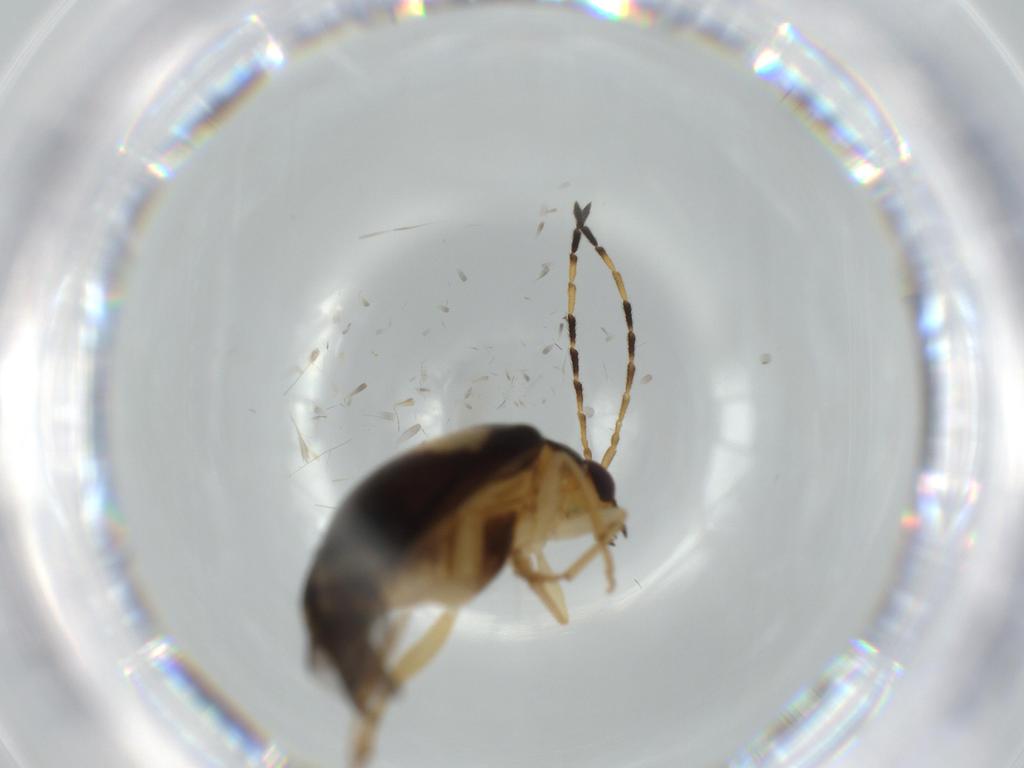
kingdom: Animalia
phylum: Arthropoda
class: Insecta
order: Coleoptera
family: Chrysomelidae
